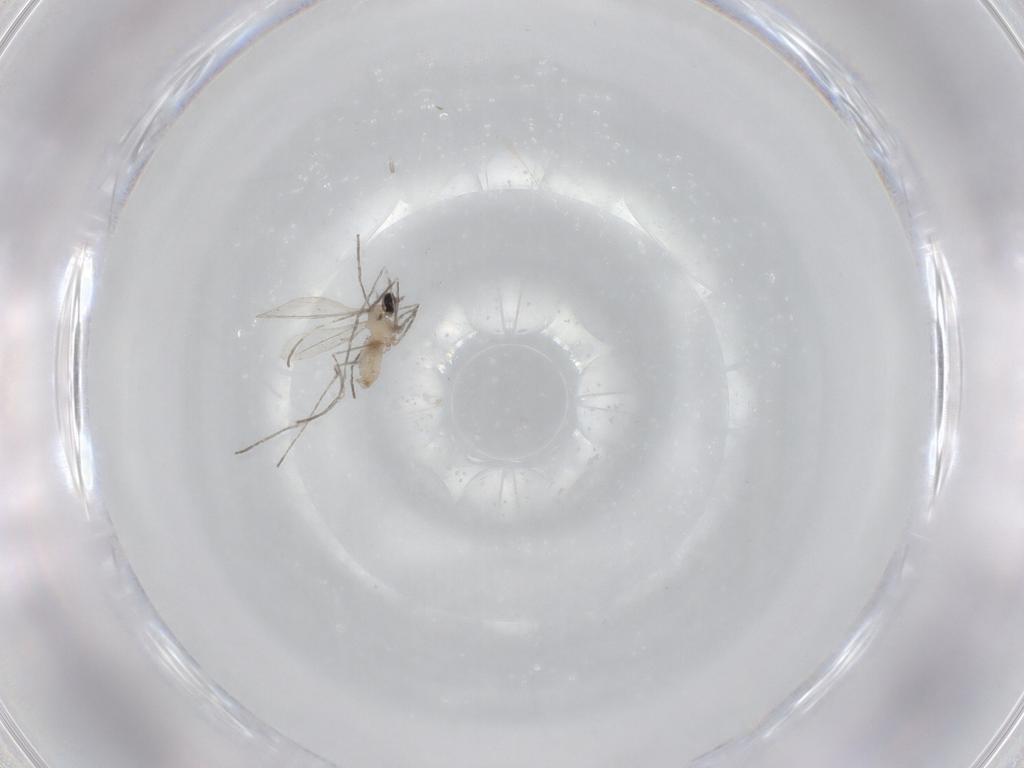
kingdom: Animalia
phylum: Arthropoda
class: Insecta
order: Diptera
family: Cecidomyiidae
